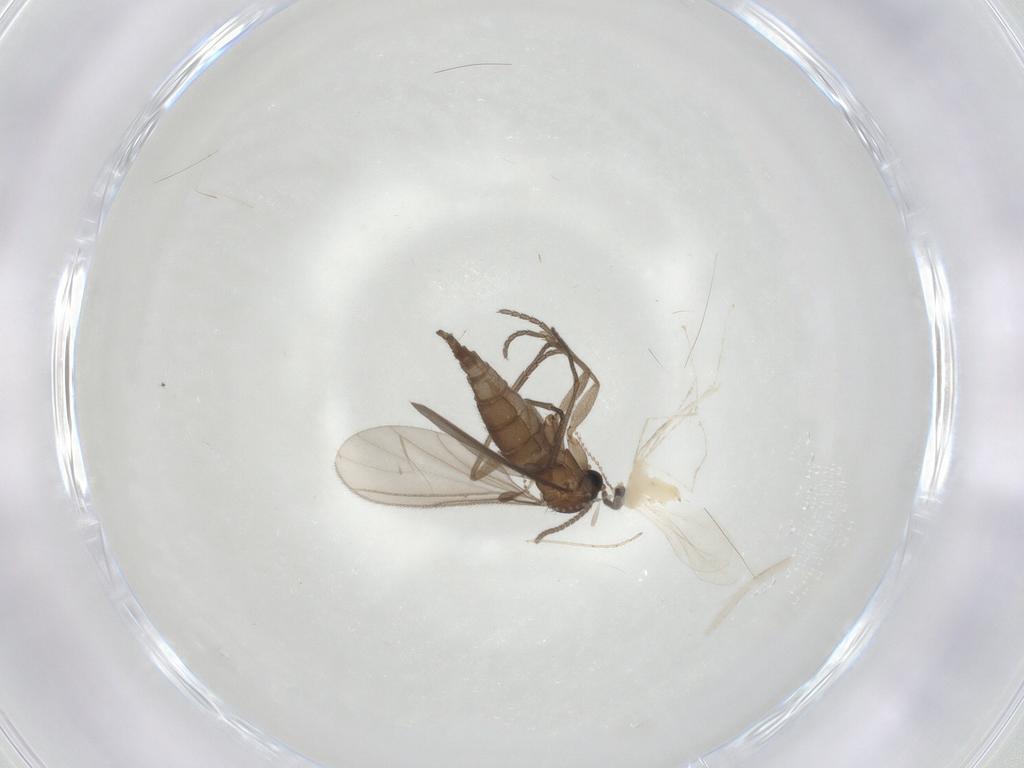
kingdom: Animalia
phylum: Arthropoda
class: Insecta
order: Diptera
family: Sciaridae
